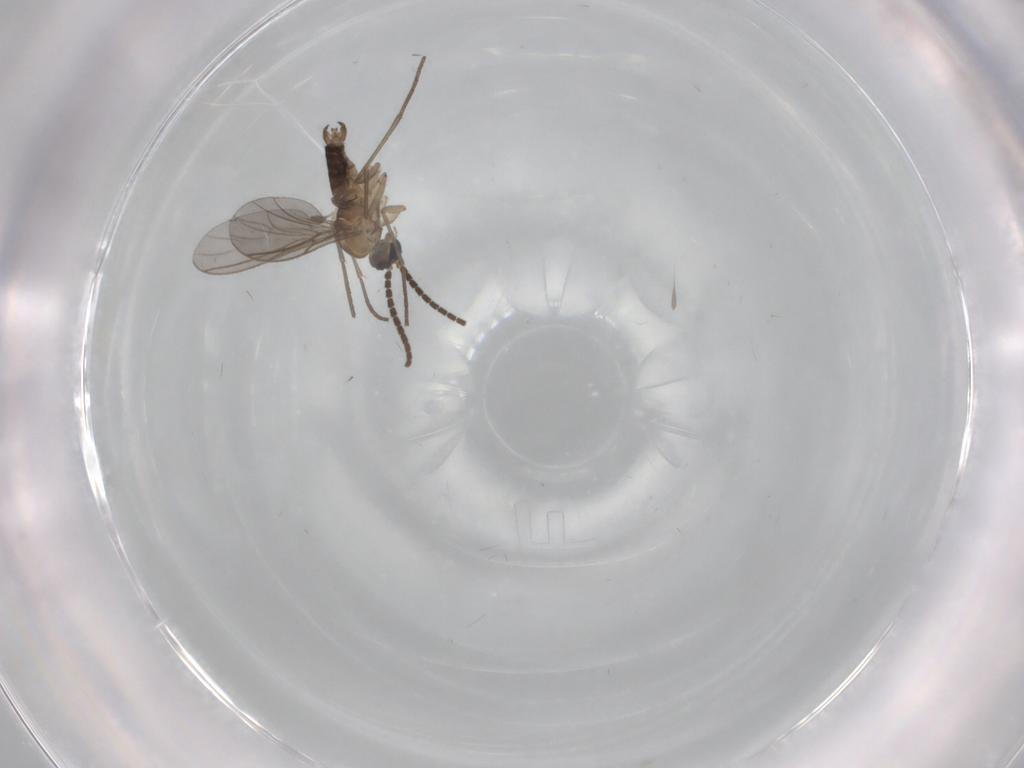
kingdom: Animalia
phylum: Arthropoda
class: Insecta
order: Diptera
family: Sciaridae
